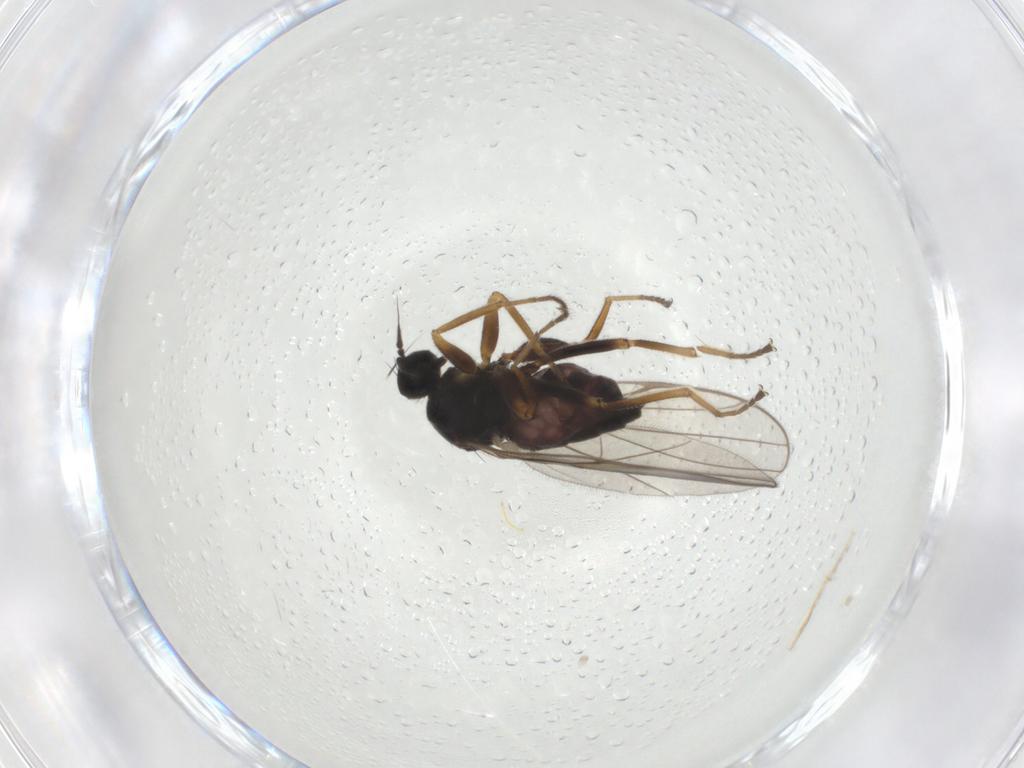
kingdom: Animalia
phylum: Arthropoda
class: Insecta
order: Diptera
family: Hybotidae
